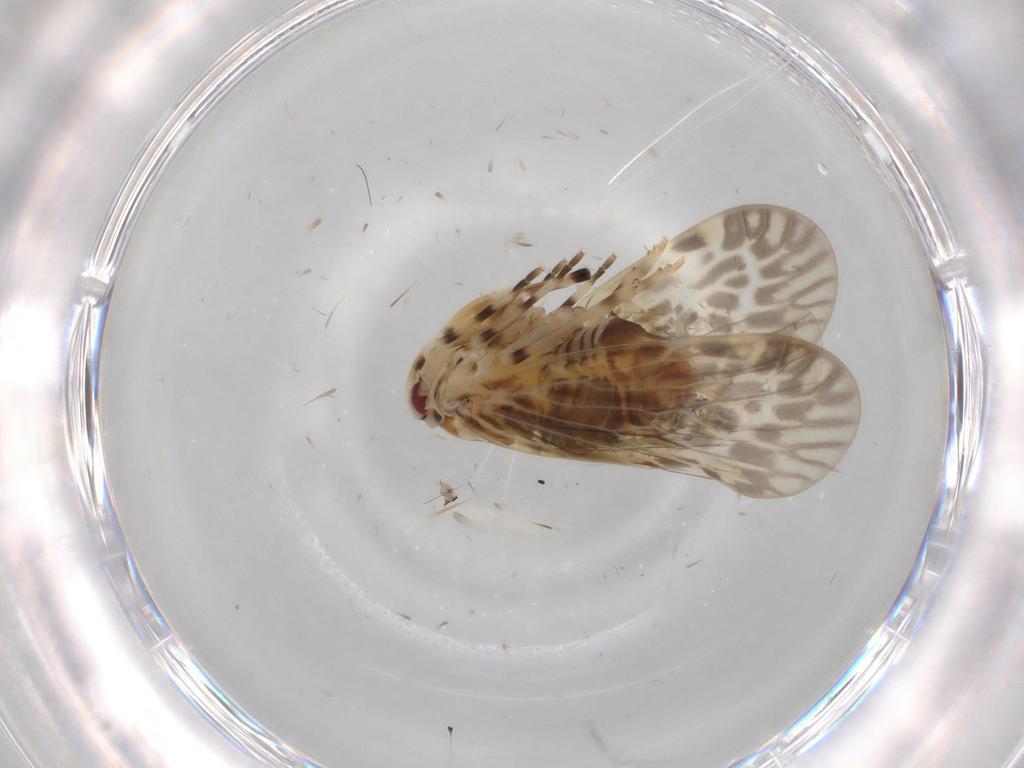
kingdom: Animalia
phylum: Arthropoda
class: Insecta
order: Hemiptera
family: Derbidae
